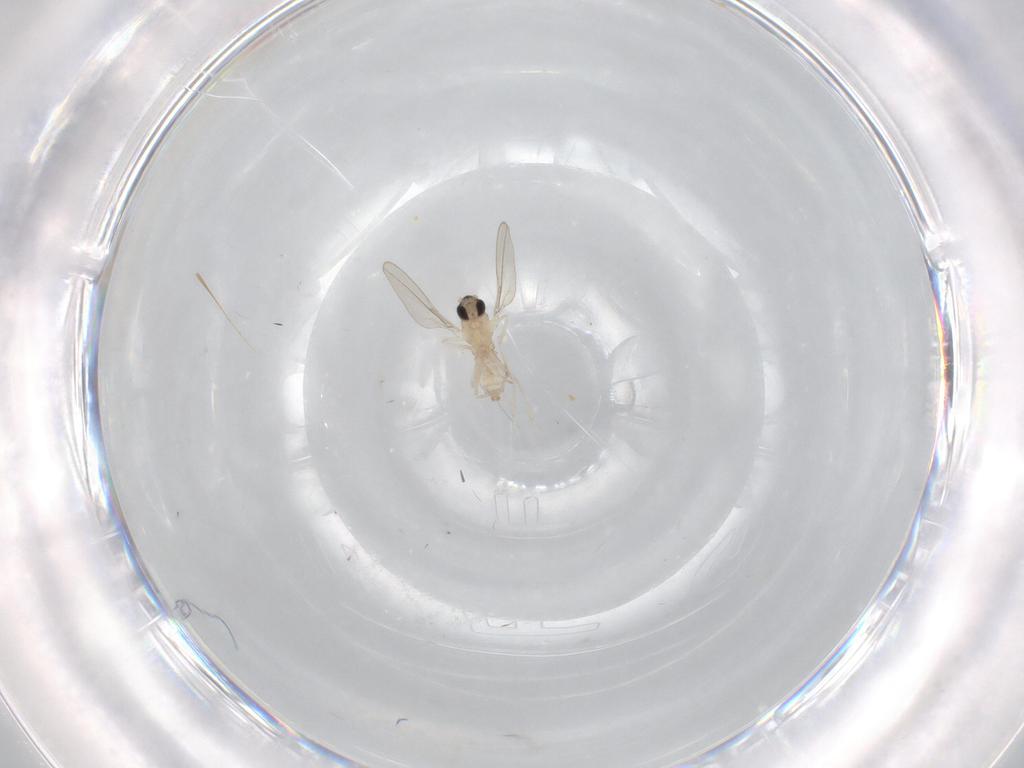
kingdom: Animalia
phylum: Arthropoda
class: Insecta
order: Diptera
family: Cecidomyiidae
